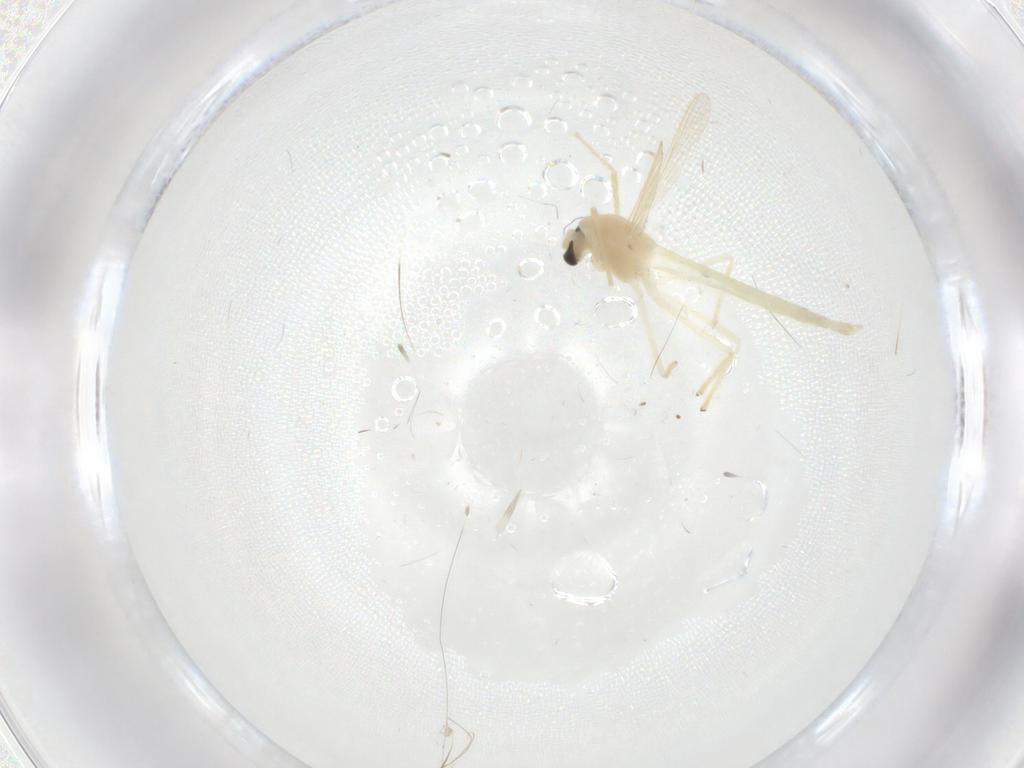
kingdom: Animalia
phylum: Arthropoda
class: Insecta
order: Diptera
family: Chironomidae
